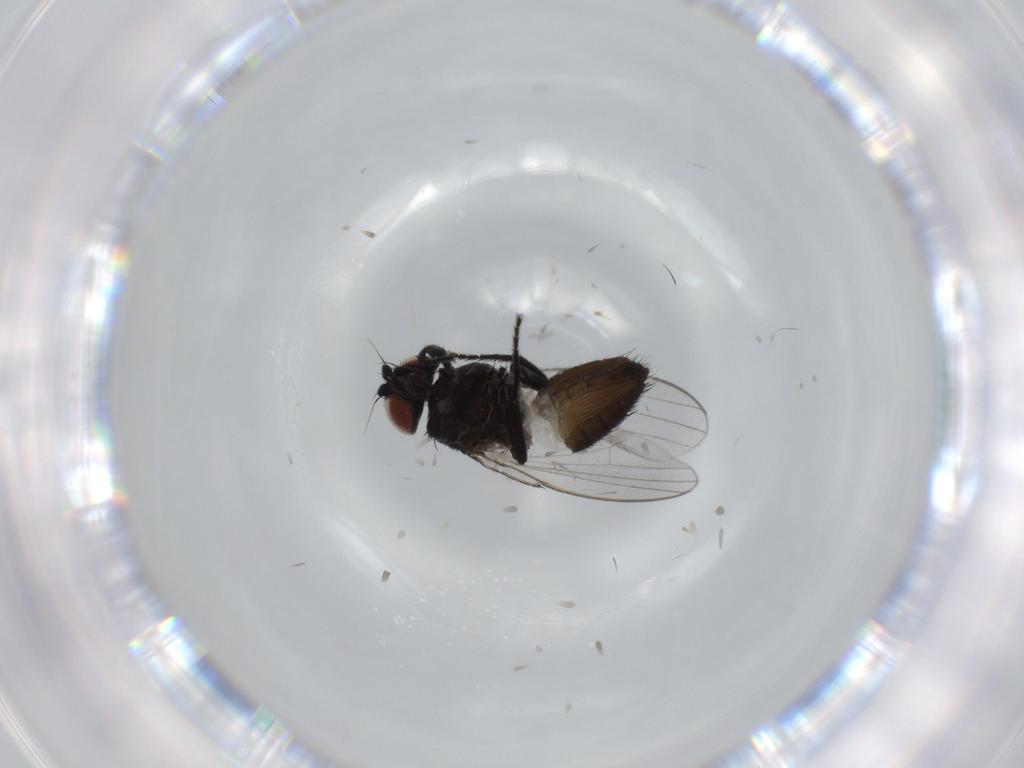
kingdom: Animalia
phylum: Arthropoda
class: Insecta
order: Diptera
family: Milichiidae
